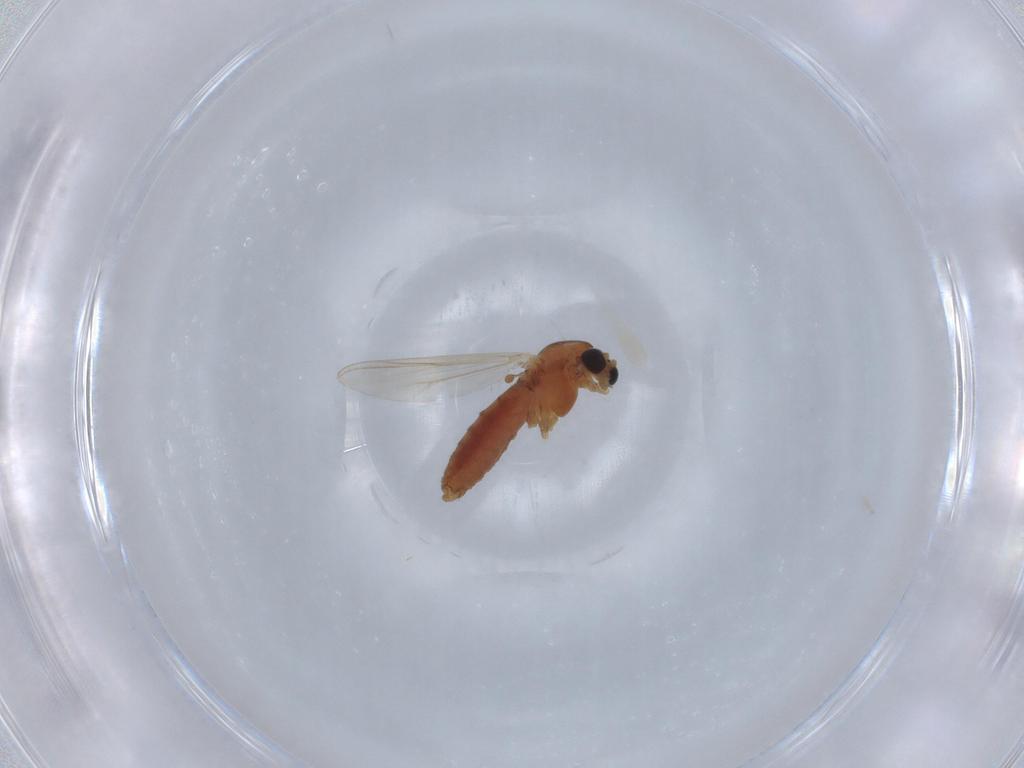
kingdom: Animalia
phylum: Arthropoda
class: Insecta
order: Diptera
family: Chironomidae
